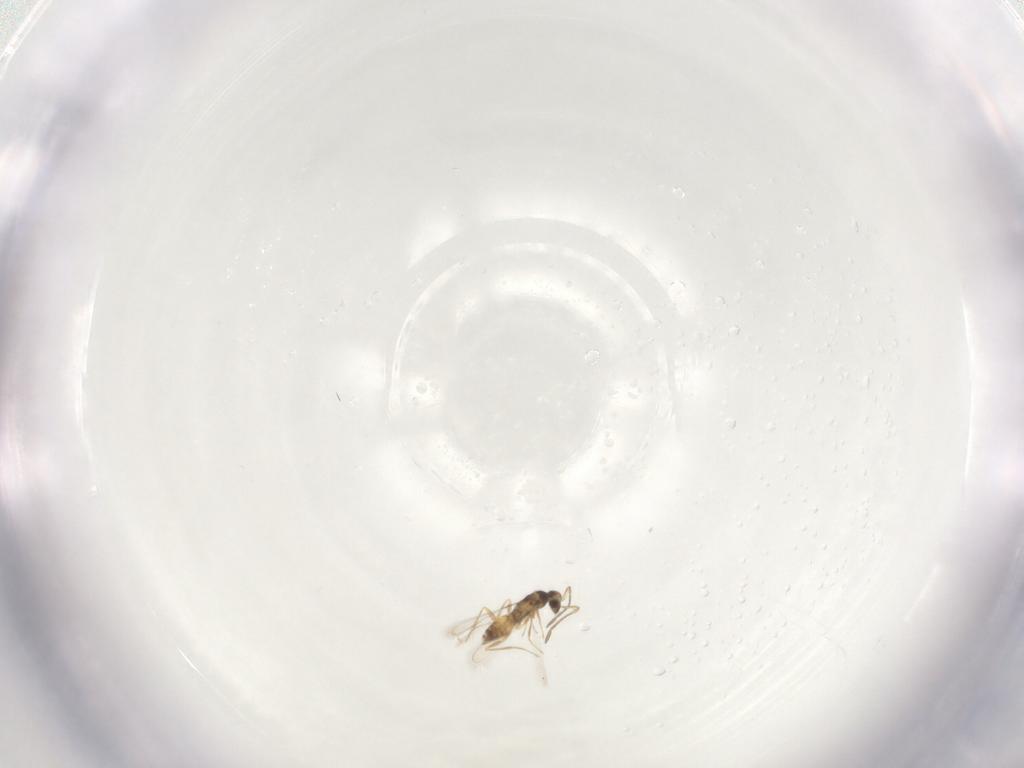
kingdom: Animalia
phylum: Arthropoda
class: Insecta
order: Hymenoptera
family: Mymaridae
